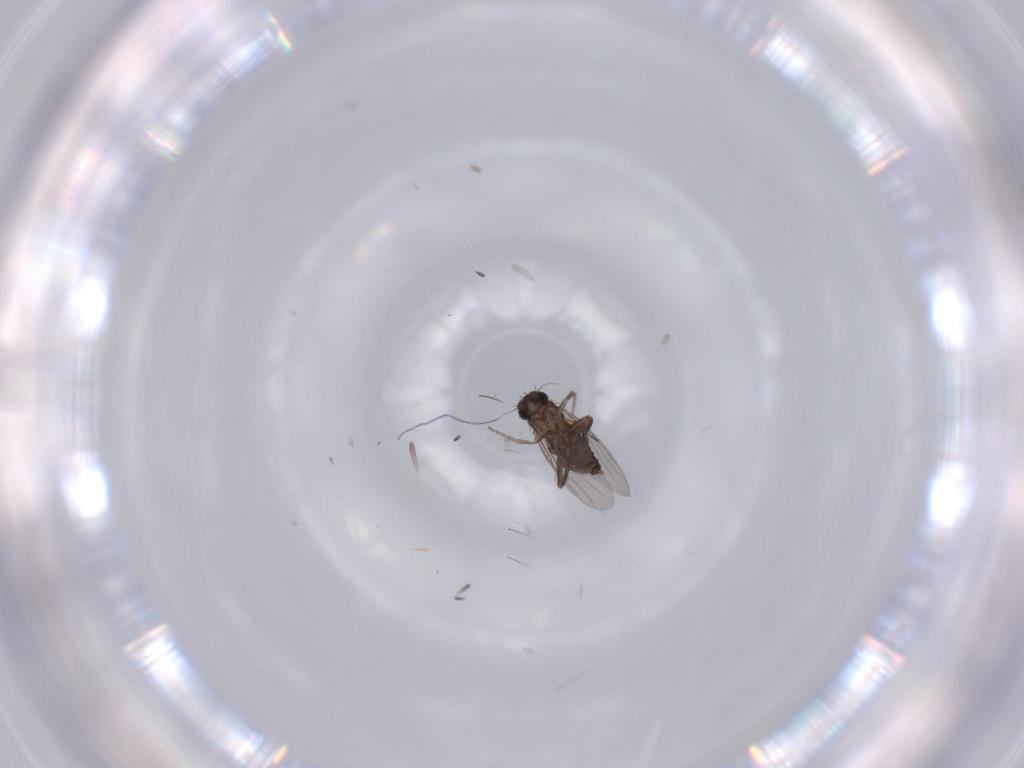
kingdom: Animalia
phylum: Arthropoda
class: Insecta
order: Diptera
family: Phoridae
